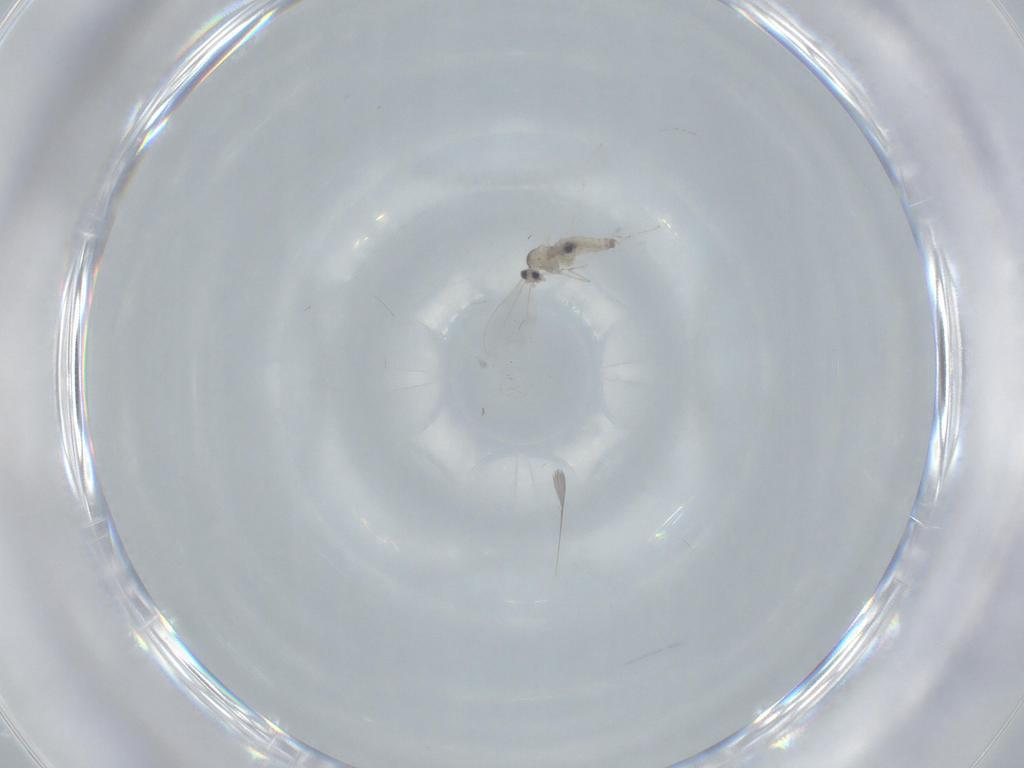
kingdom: Animalia
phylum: Arthropoda
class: Insecta
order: Diptera
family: Cecidomyiidae
